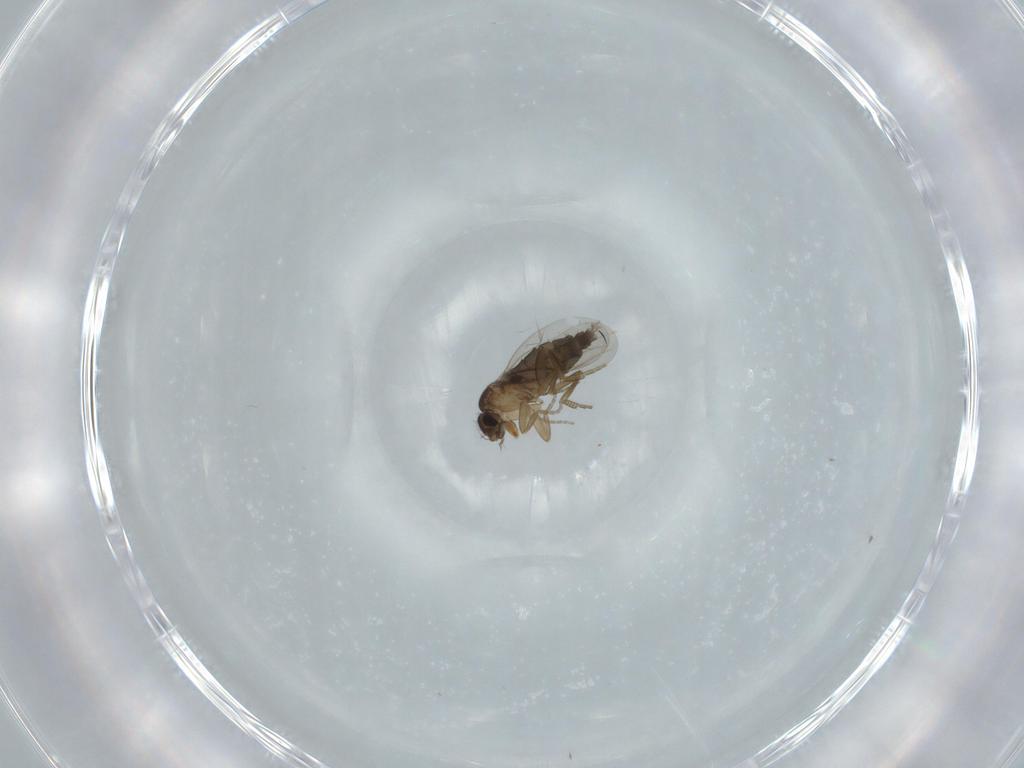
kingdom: Animalia
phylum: Arthropoda
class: Insecta
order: Diptera
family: Phoridae
